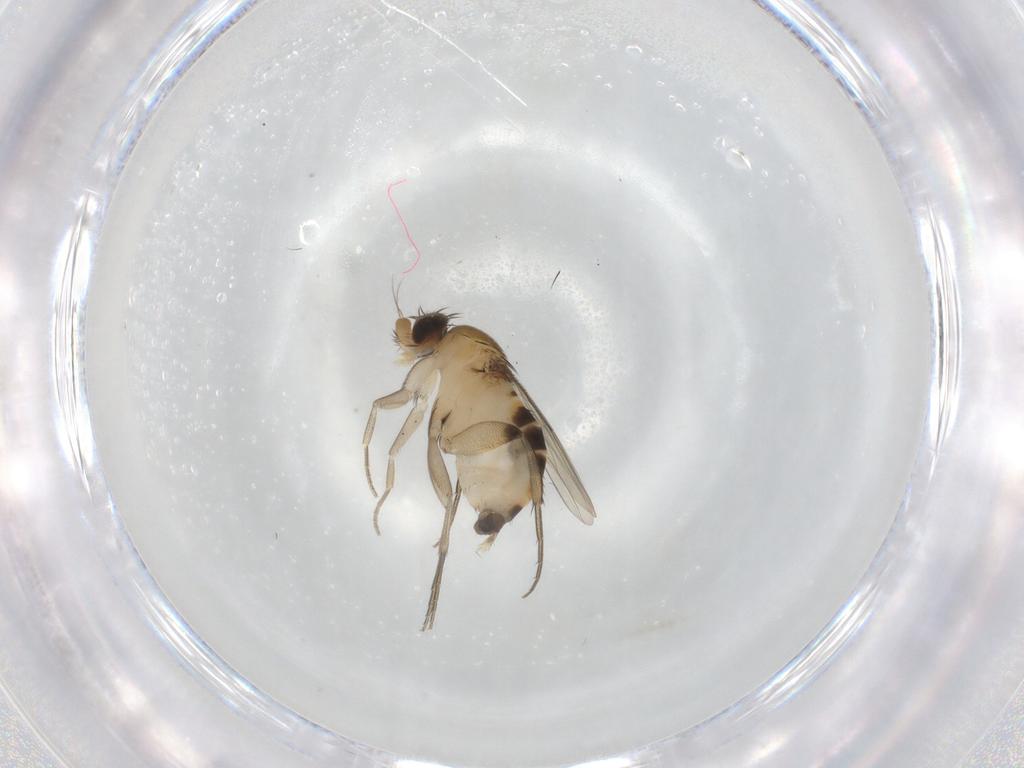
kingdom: Animalia
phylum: Arthropoda
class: Insecta
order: Diptera
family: Phoridae
